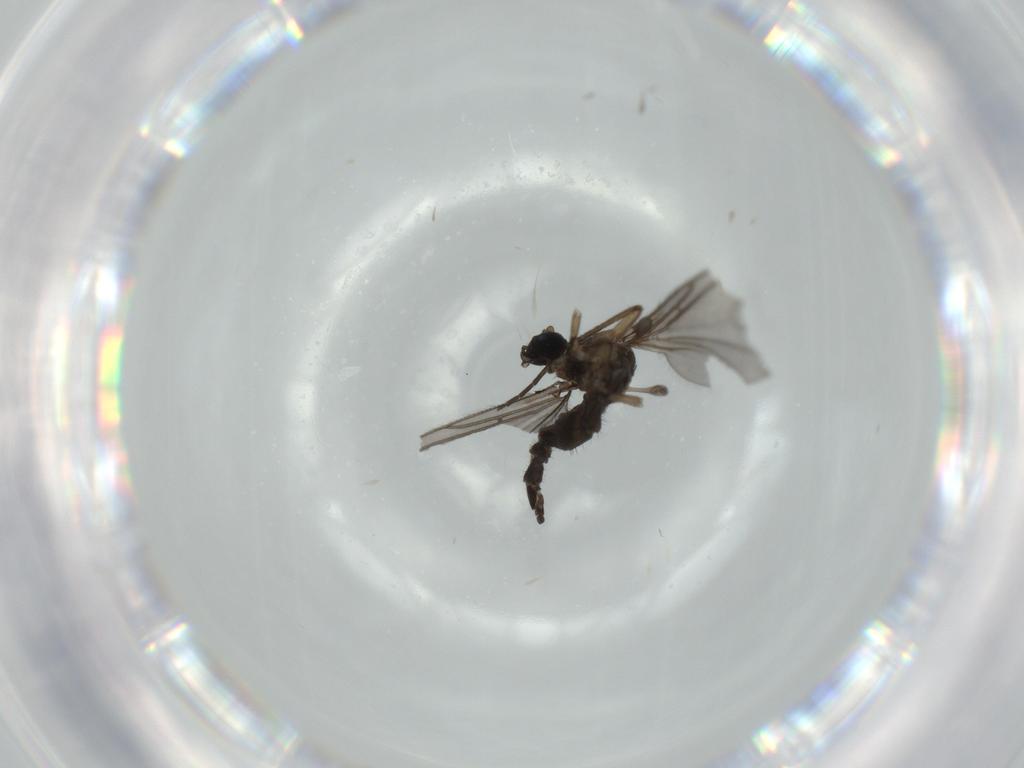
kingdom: Animalia
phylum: Arthropoda
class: Insecta
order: Diptera
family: Sciaridae
